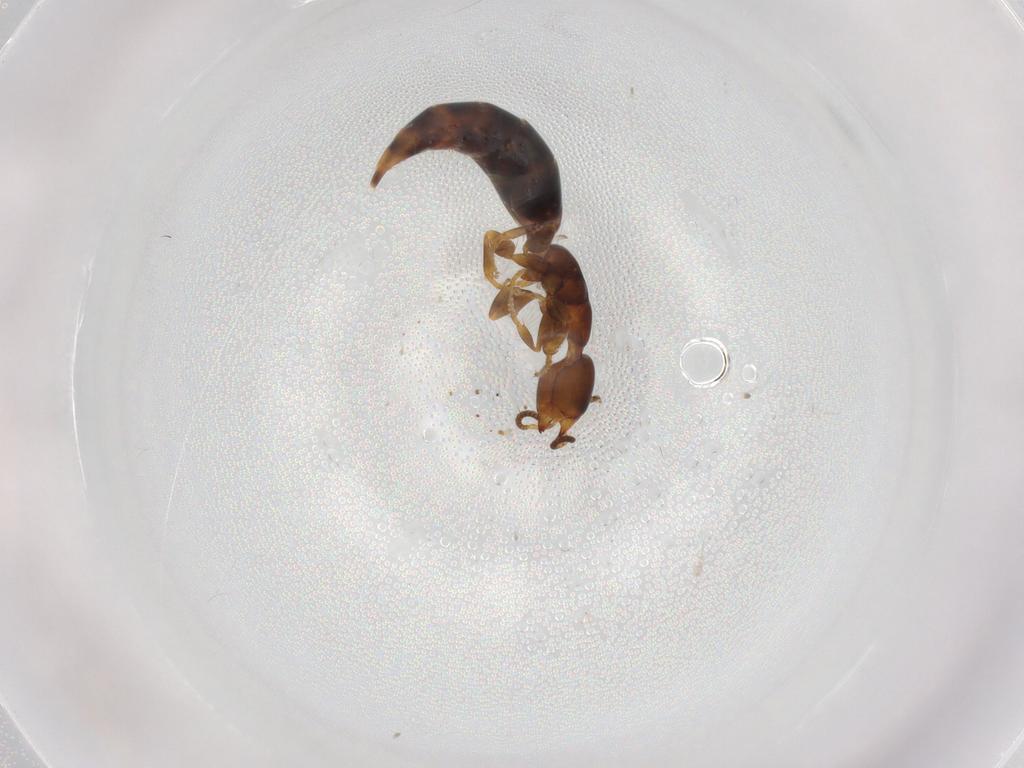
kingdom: Animalia
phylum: Arthropoda
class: Insecta
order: Hymenoptera
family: Bethylidae
